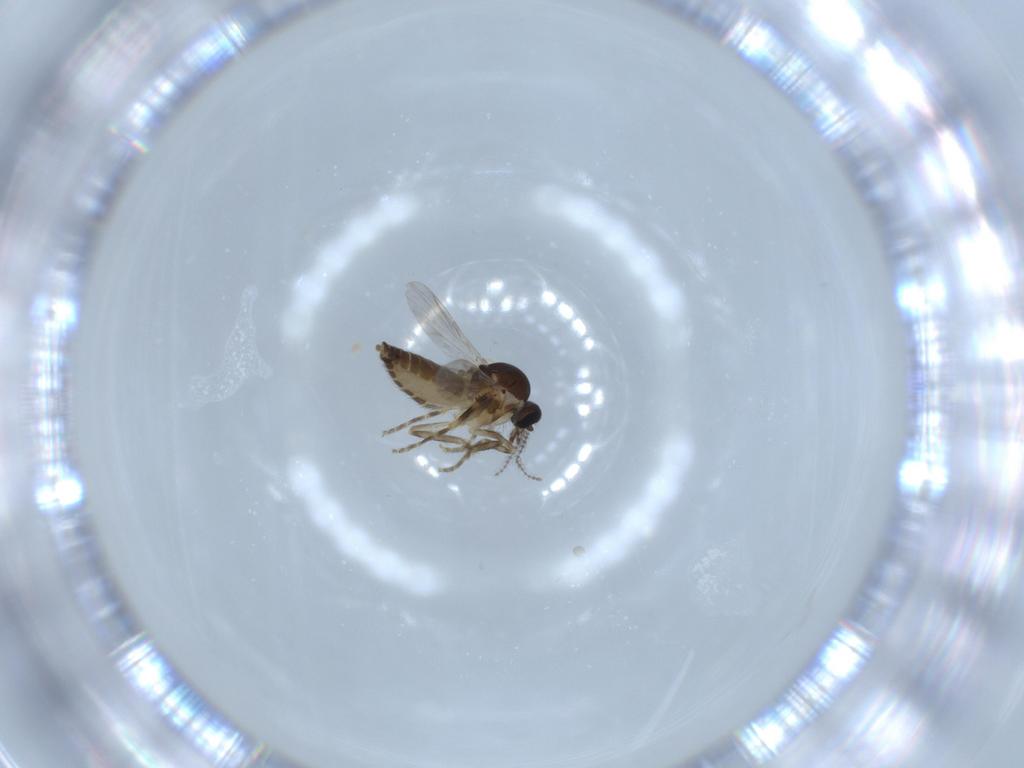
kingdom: Animalia
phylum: Arthropoda
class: Insecta
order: Diptera
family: Ceratopogonidae
